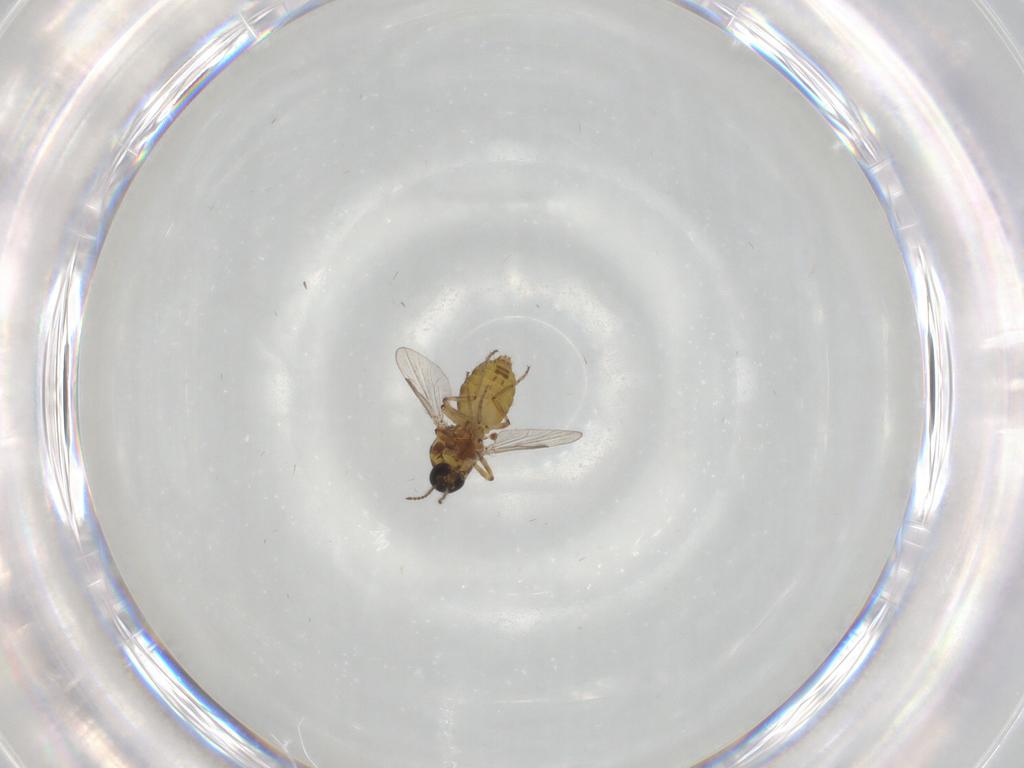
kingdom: Animalia
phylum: Arthropoda
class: Insecta
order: Diptera
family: Ceratopogonidae
